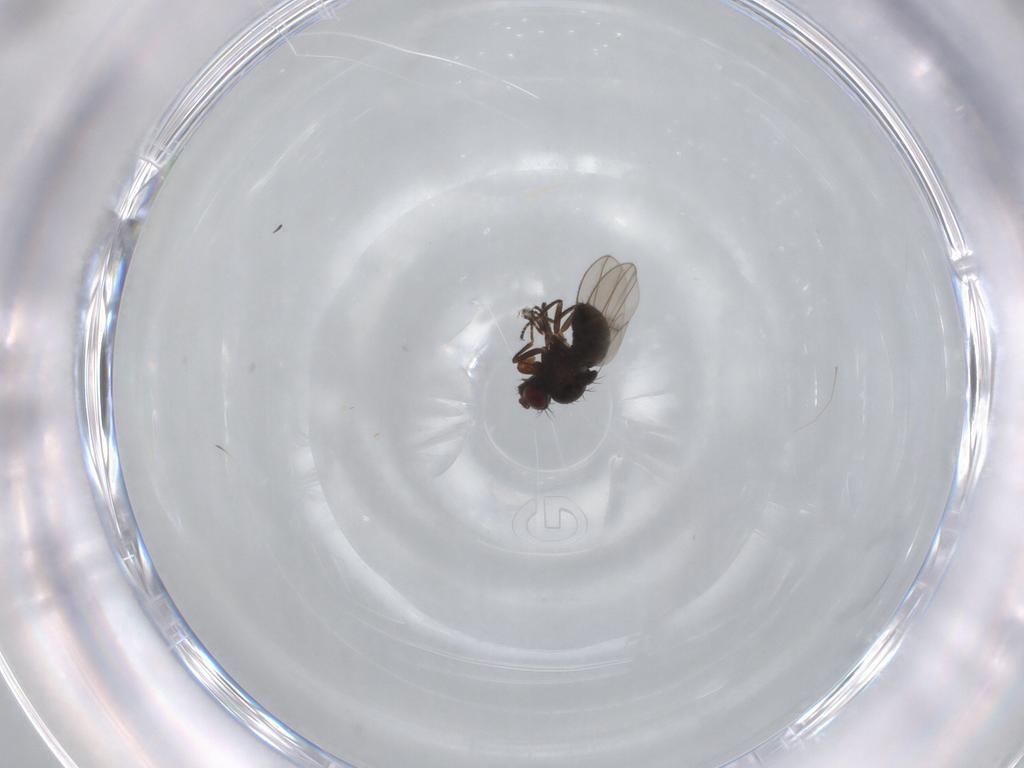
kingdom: Animalia
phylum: Arthropoda
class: Insecta
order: Diptera
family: Ephydridae
